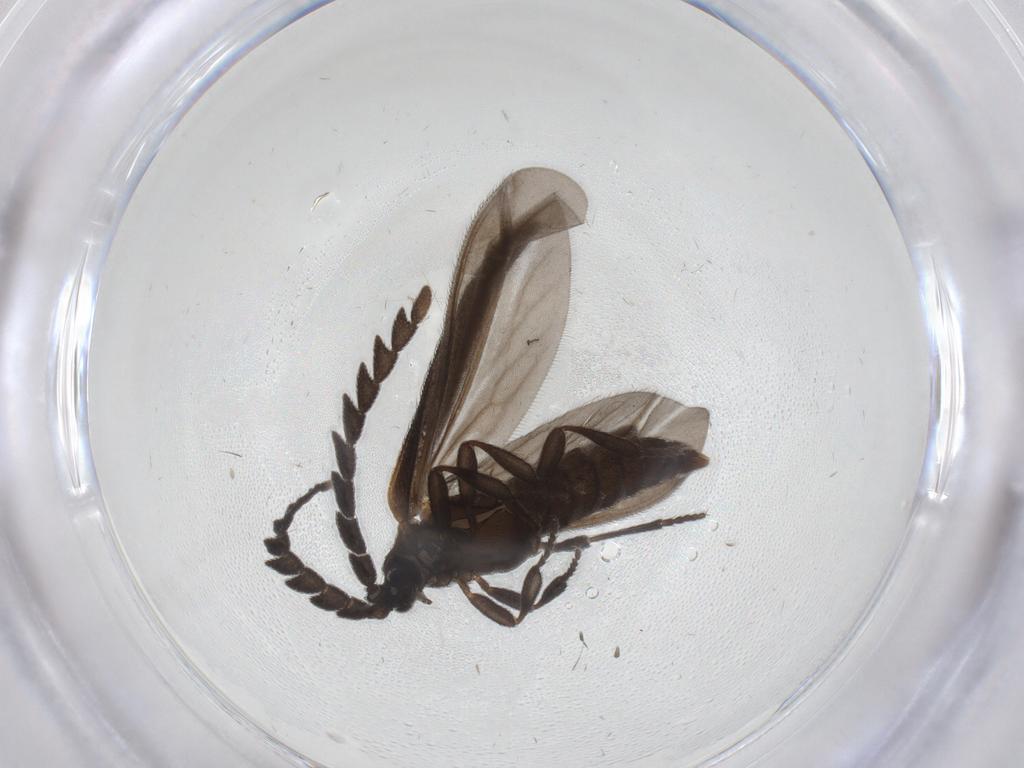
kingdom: Animalia
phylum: Arthropoda
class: Insecta
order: Coleoptera
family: Lycidae
